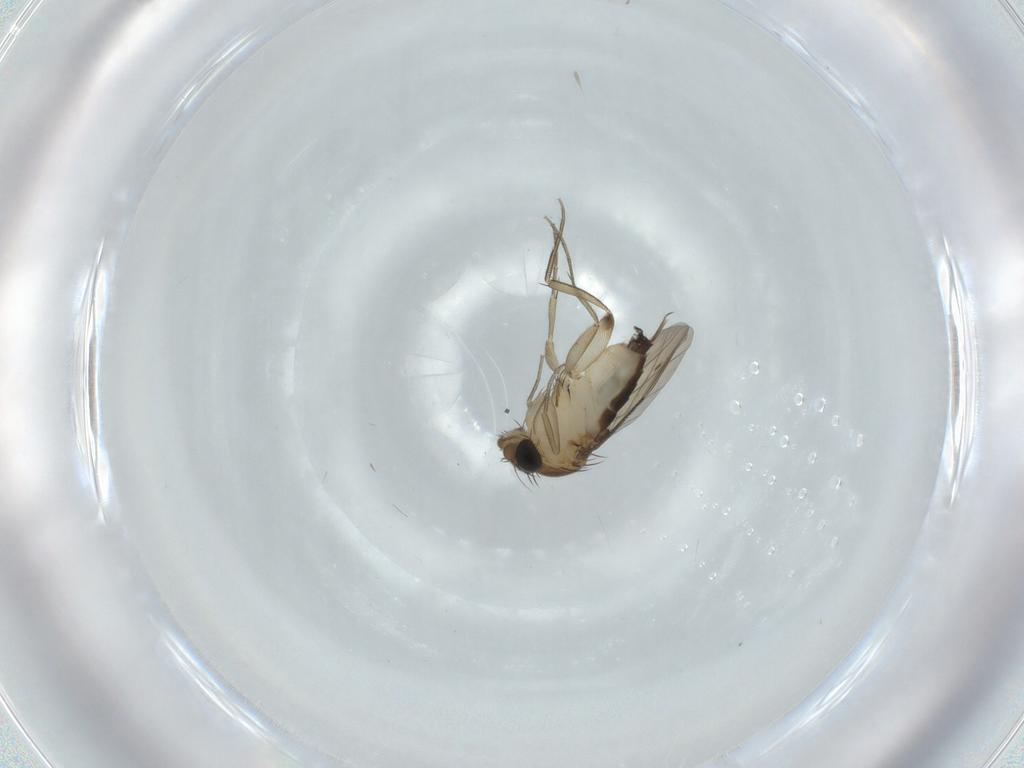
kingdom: Animalia
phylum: Arthropoda
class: Insecta
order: Diptera
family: Phoridae
